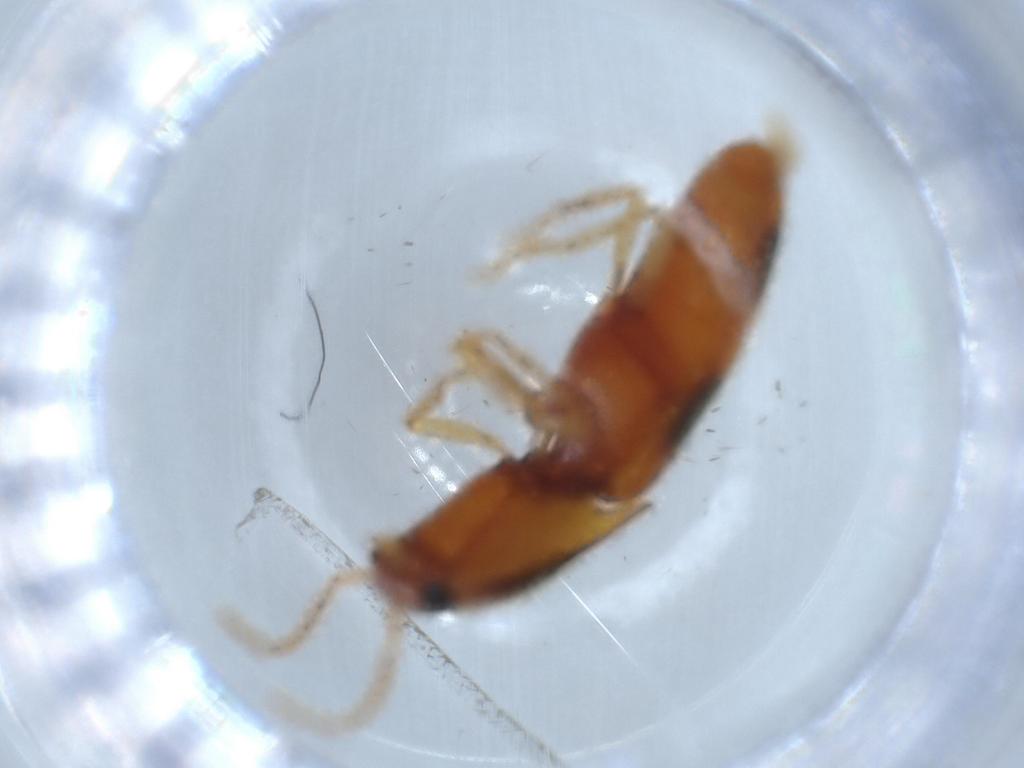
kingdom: Animalia
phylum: Arthropoda
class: Insecta
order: Coleoptera
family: Elateridae
